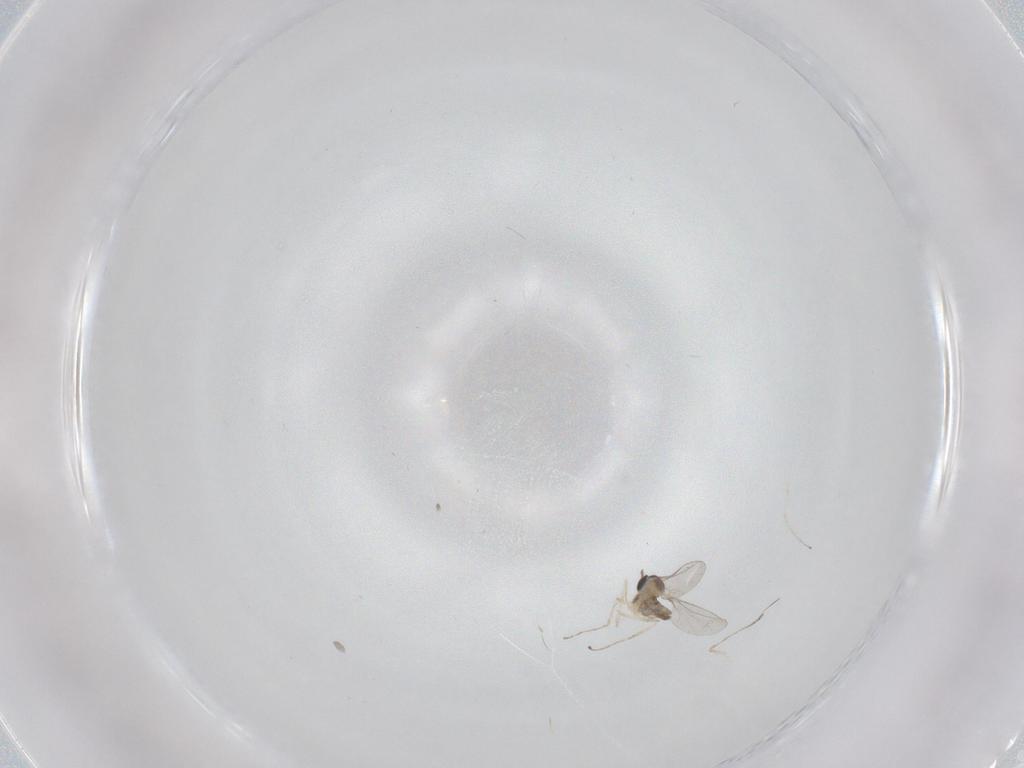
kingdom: Animalia
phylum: Arthropoda
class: Insecta
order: Diptera
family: Cecidomyiidae
